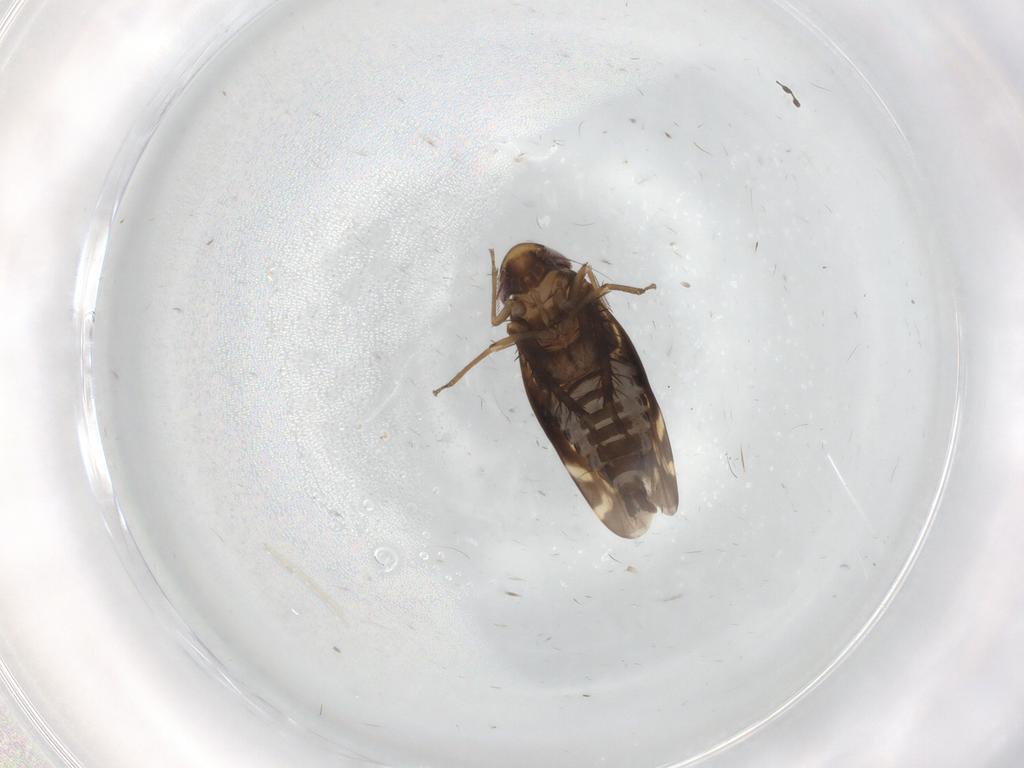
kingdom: Animalia
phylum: Arthropoda
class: Insecta
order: Hemiptera
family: Cicadellidae
